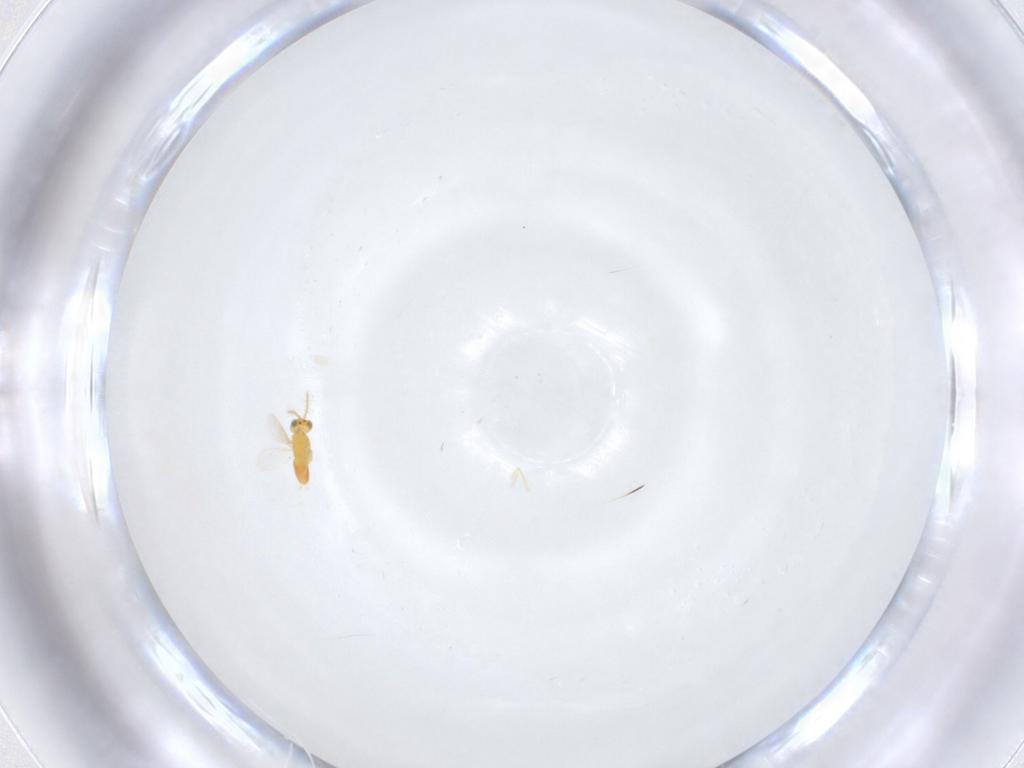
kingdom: Animalia
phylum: Arthropoda
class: Insecta
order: Hymenoptera
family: Aphelinidae
